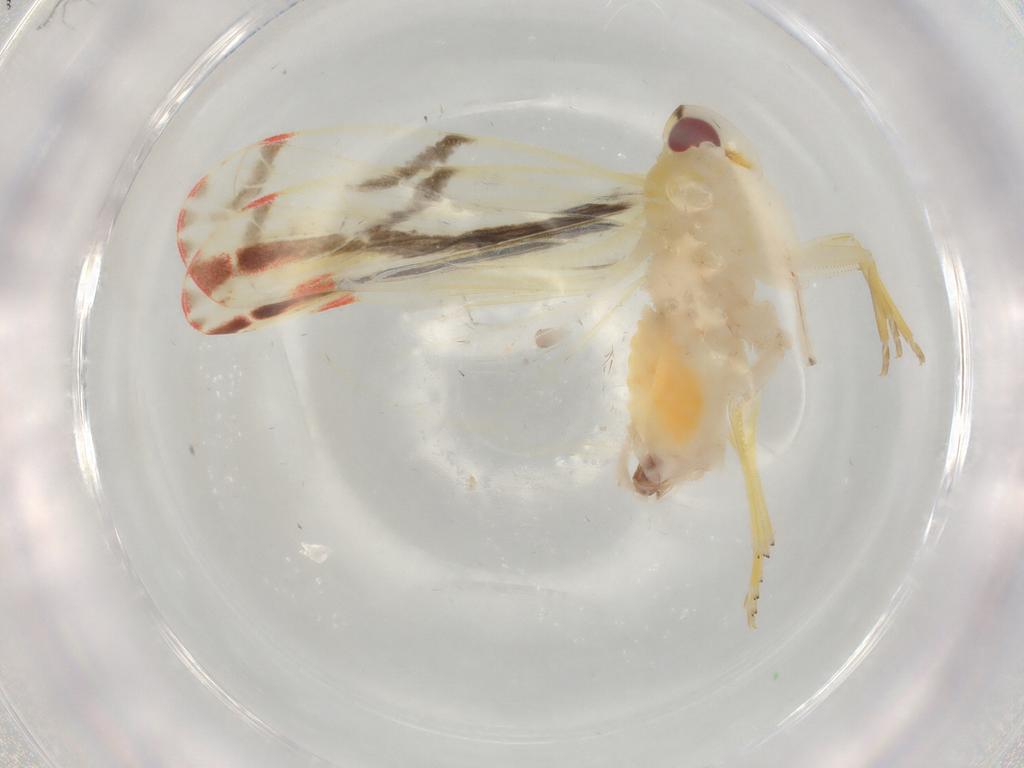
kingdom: Animalia
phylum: Arthropoda
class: Insecta
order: Hemiptera
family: Derbidae
